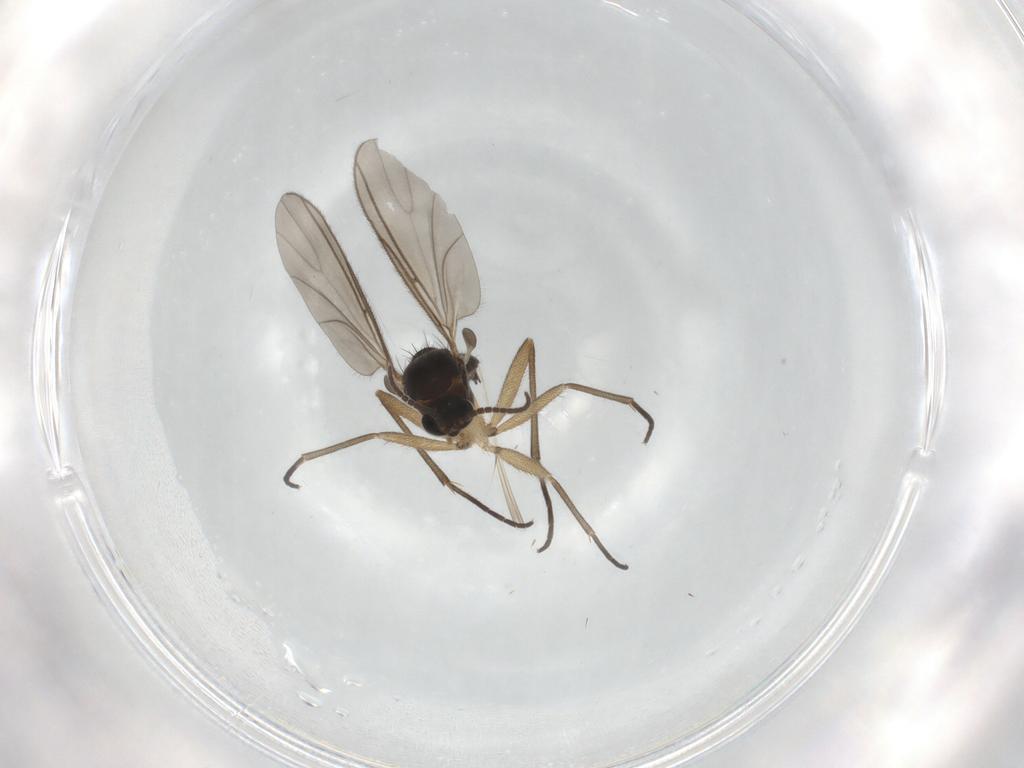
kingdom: Animalia
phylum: Arthropoda
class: Insecta
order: Diptera
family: Sciaridae
